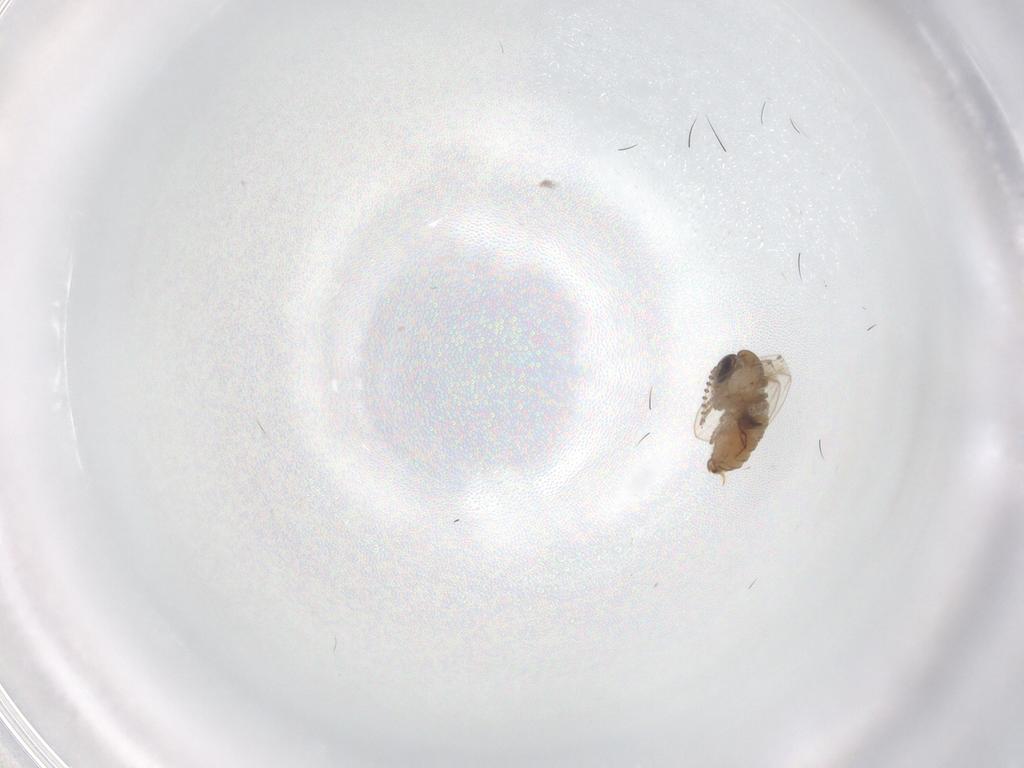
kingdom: Animalia
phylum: Arthropoda
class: Insecta
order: Diptera
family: Psychodidae
